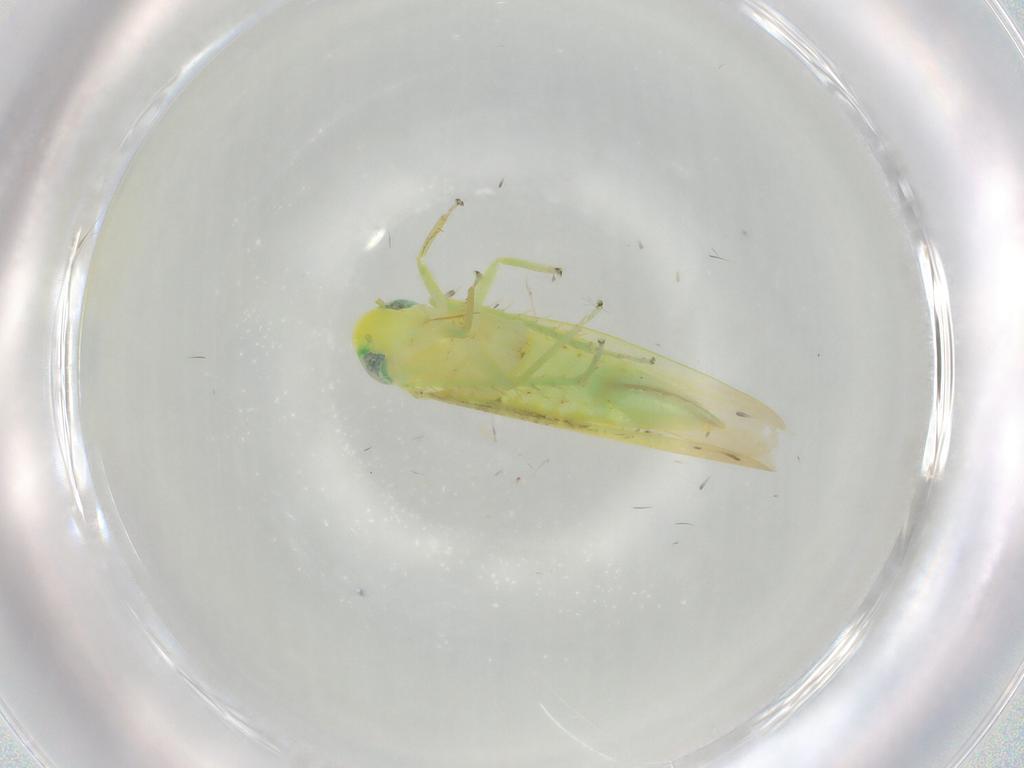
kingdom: Animalia
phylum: Arthropoda
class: Insecta
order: Hemiptera
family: Cicadellidae
